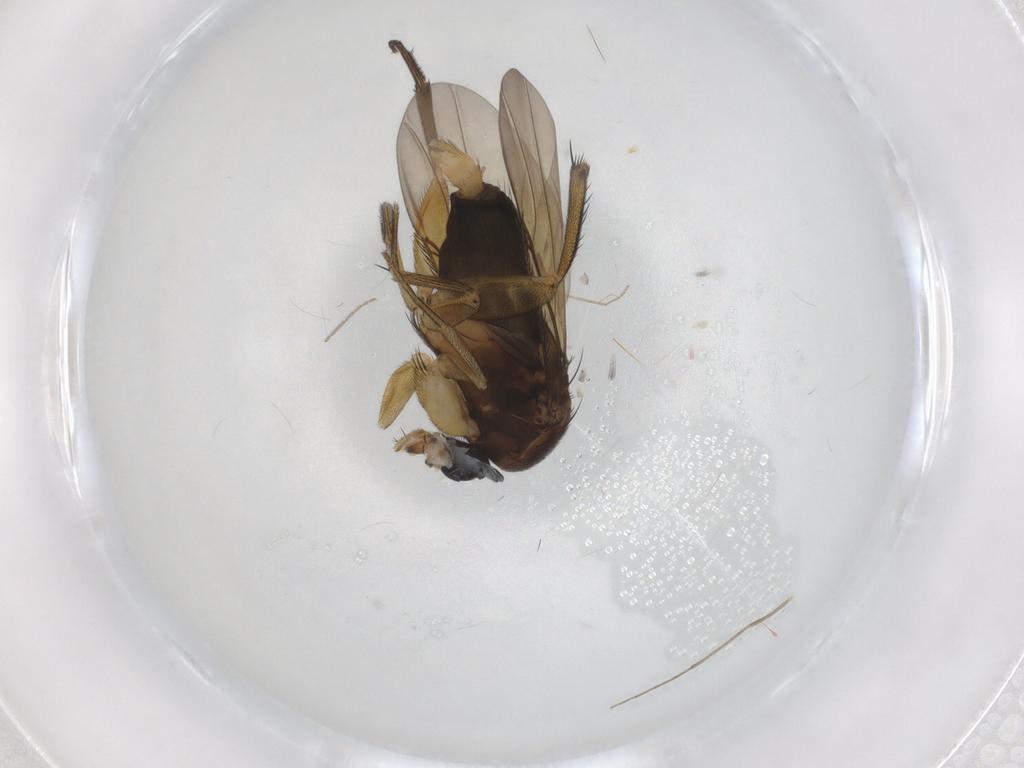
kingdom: Animalia
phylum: Arthropoda
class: Insecta
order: Diptera
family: Phoridae
